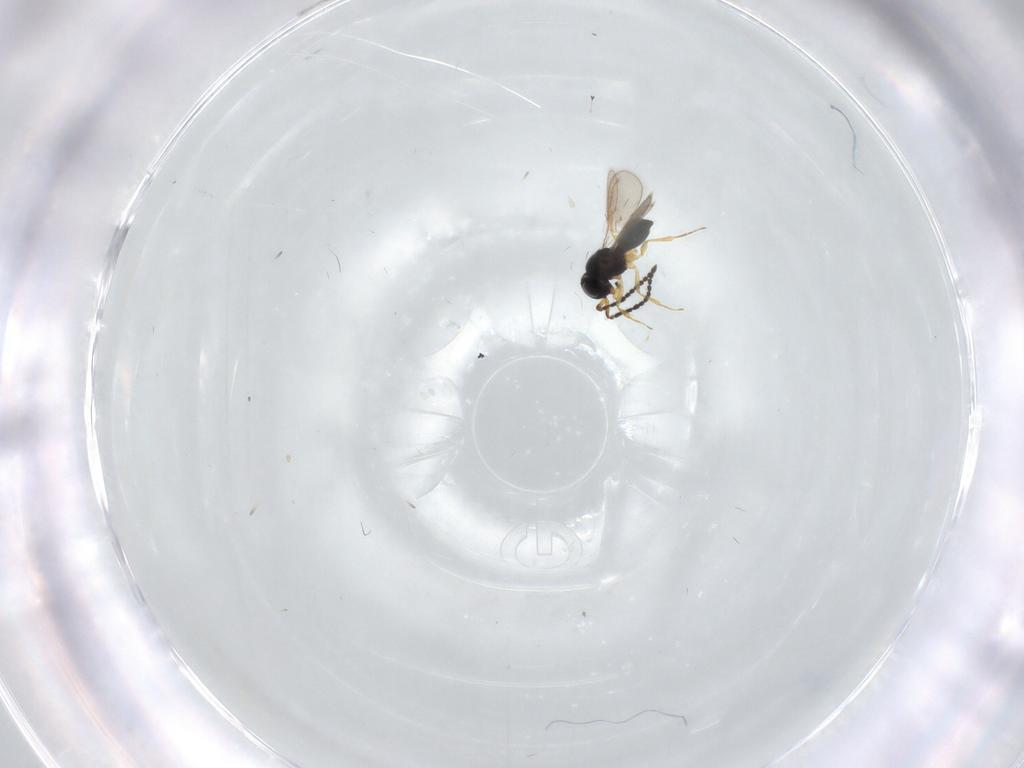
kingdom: Animalia
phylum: Arthropoda
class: Insecta
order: Hymenoptera
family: Scelionidae
